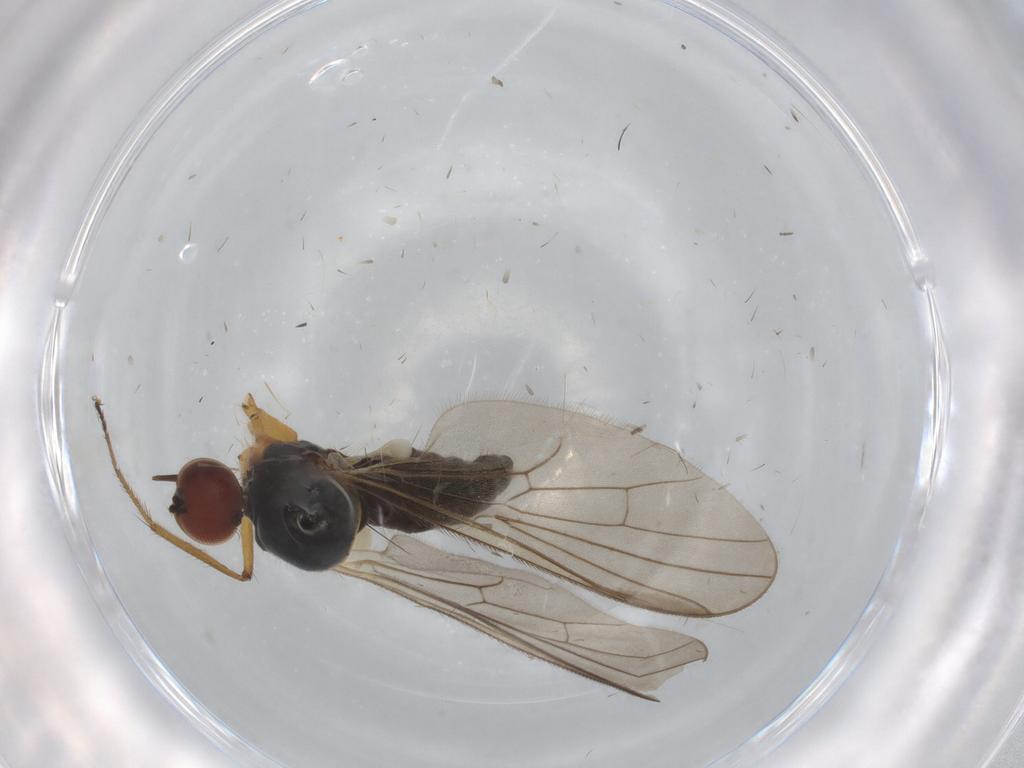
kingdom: Animalia
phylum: Arthropoda
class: Insecta
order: Diptera
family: Hybotidae
